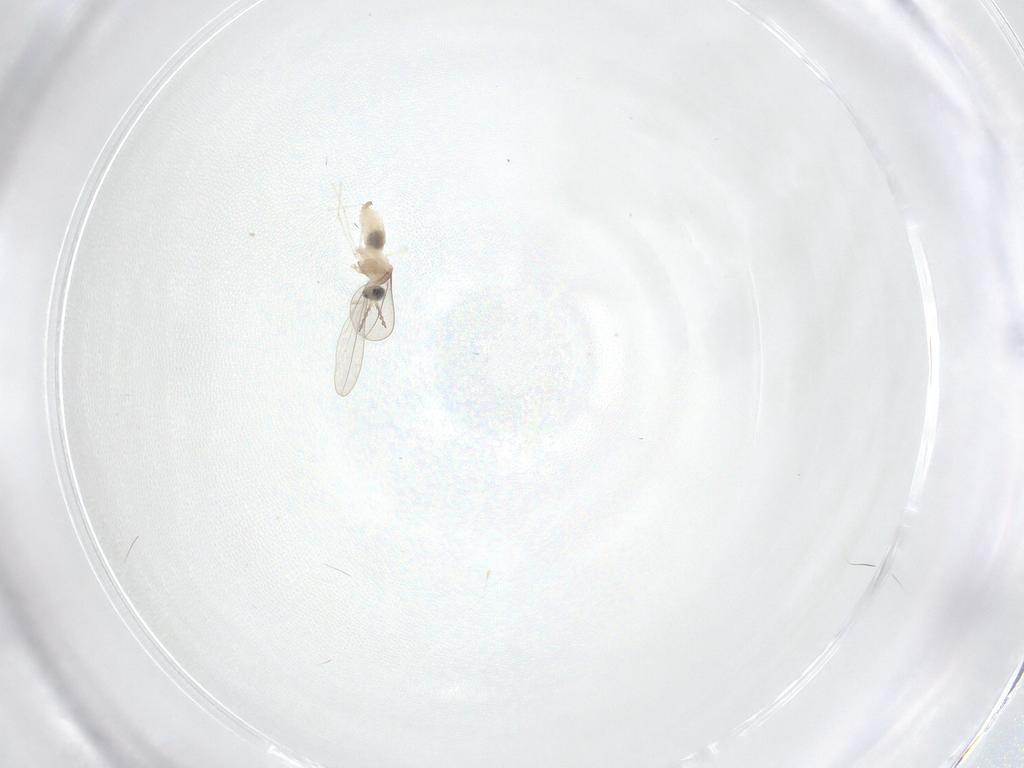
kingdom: Animalia
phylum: Arthropoda
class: Insecta
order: Diptera
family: Cecidomyiidae
